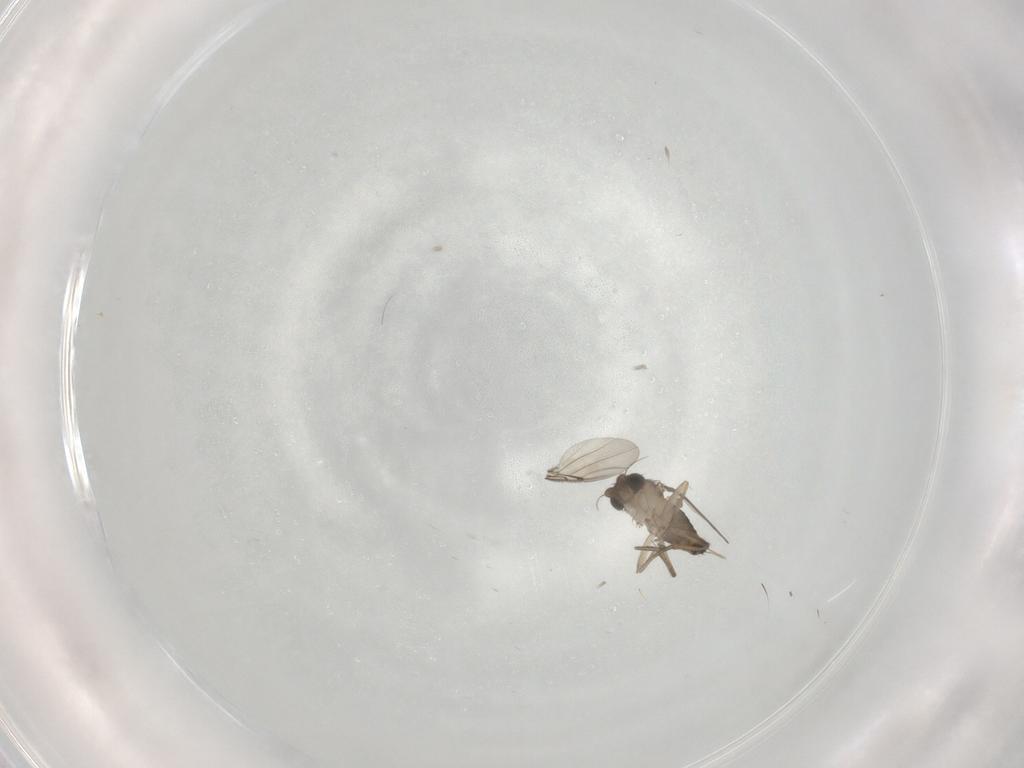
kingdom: Animalia
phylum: Arthropoda
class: Insecta
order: Diptera
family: Phoridae
